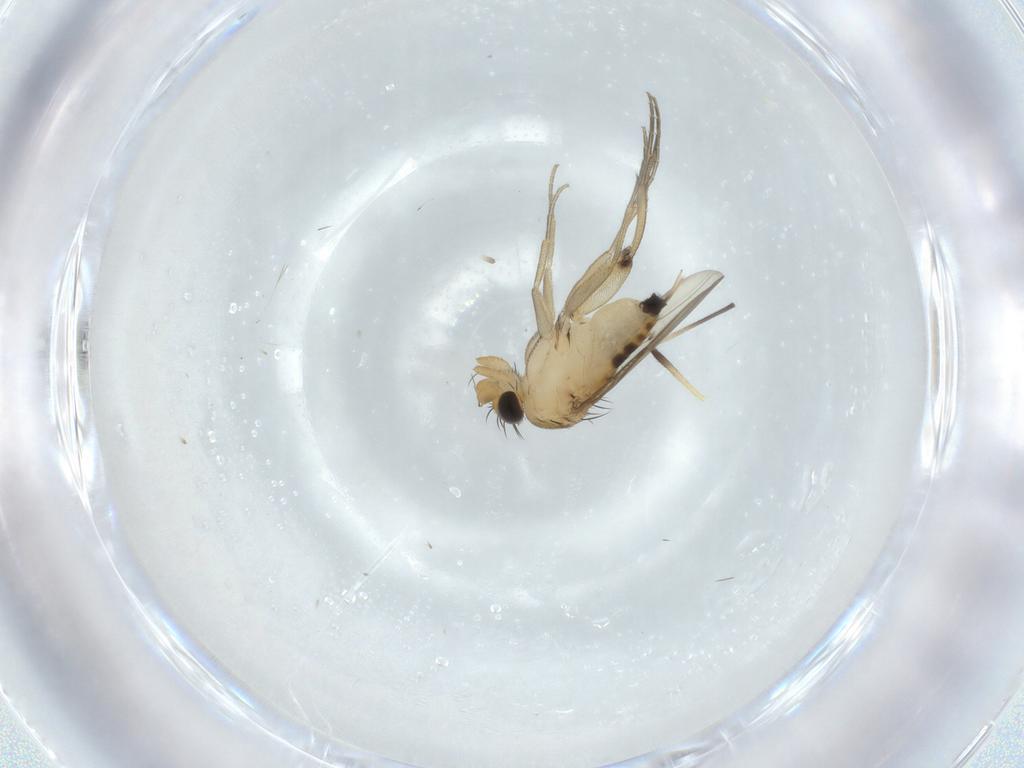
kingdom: Animalia
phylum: Arthropoda
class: Insecta
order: Diptera
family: Phoridae
